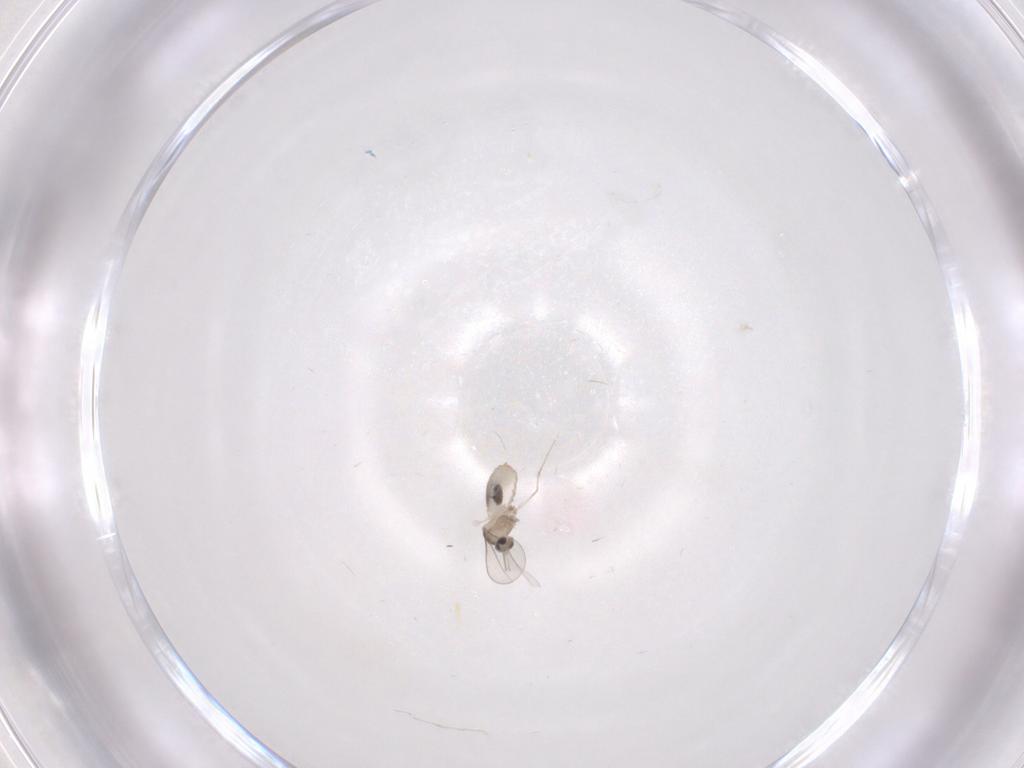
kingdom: Animalia
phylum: Arthropoda
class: Insecta
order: Diptera
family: Cecidomyiidae
